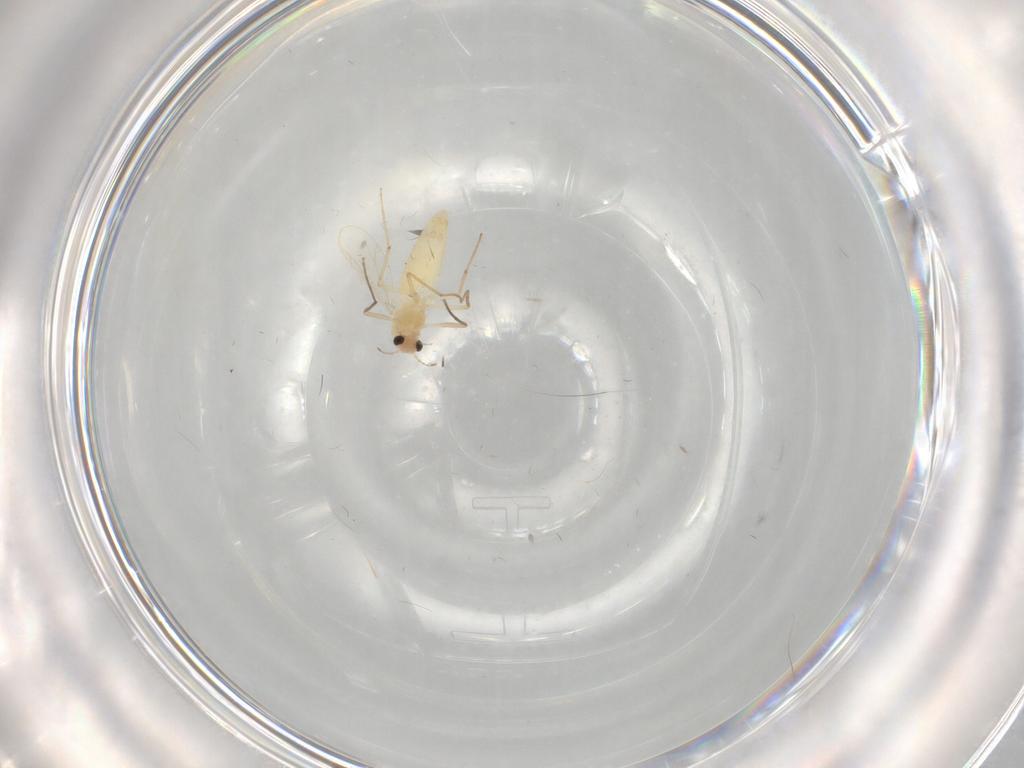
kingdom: Animalia
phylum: Arthropoda
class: Insecta
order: Diptera
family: Chironomidae
